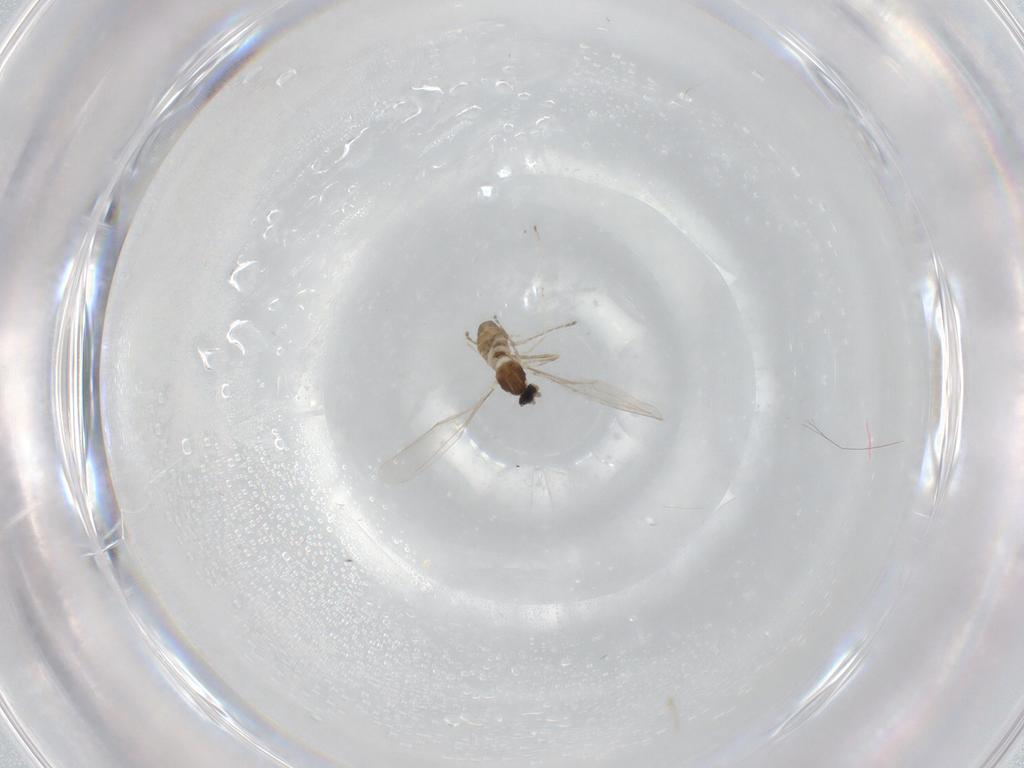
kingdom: Animalia
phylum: Arthropoda
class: Insecta
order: Diptera
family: Cecidomyiidae
